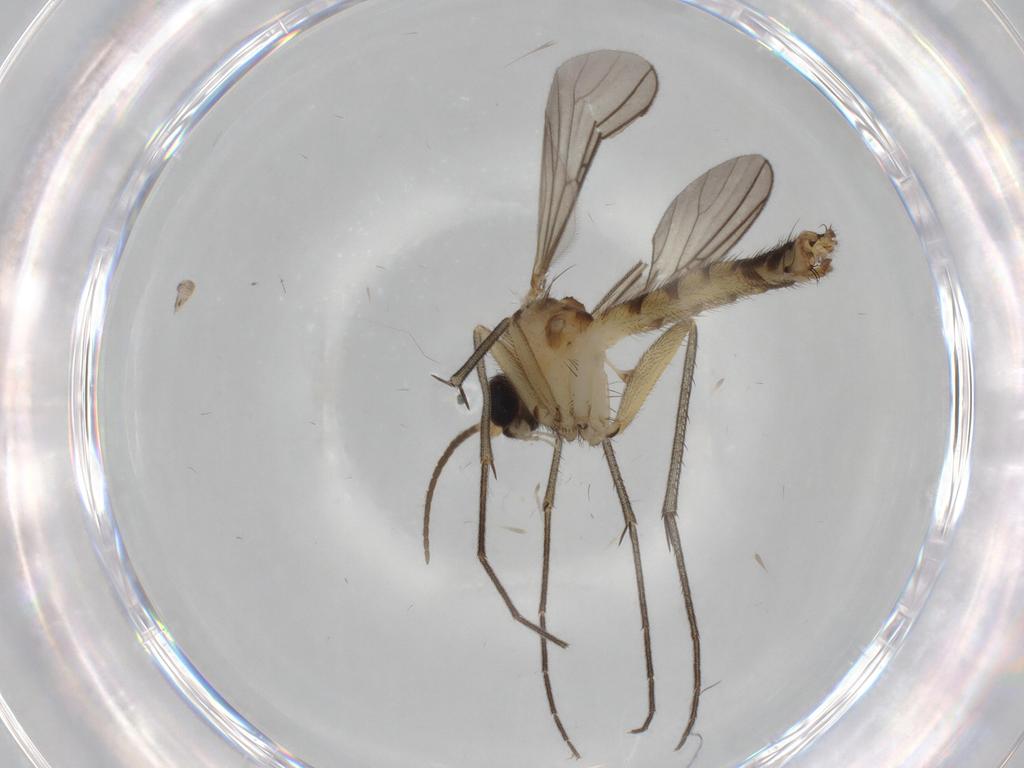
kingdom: Animalia
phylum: Arthropoda
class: Insecta
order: Diptera
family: Cecidomyiidae
